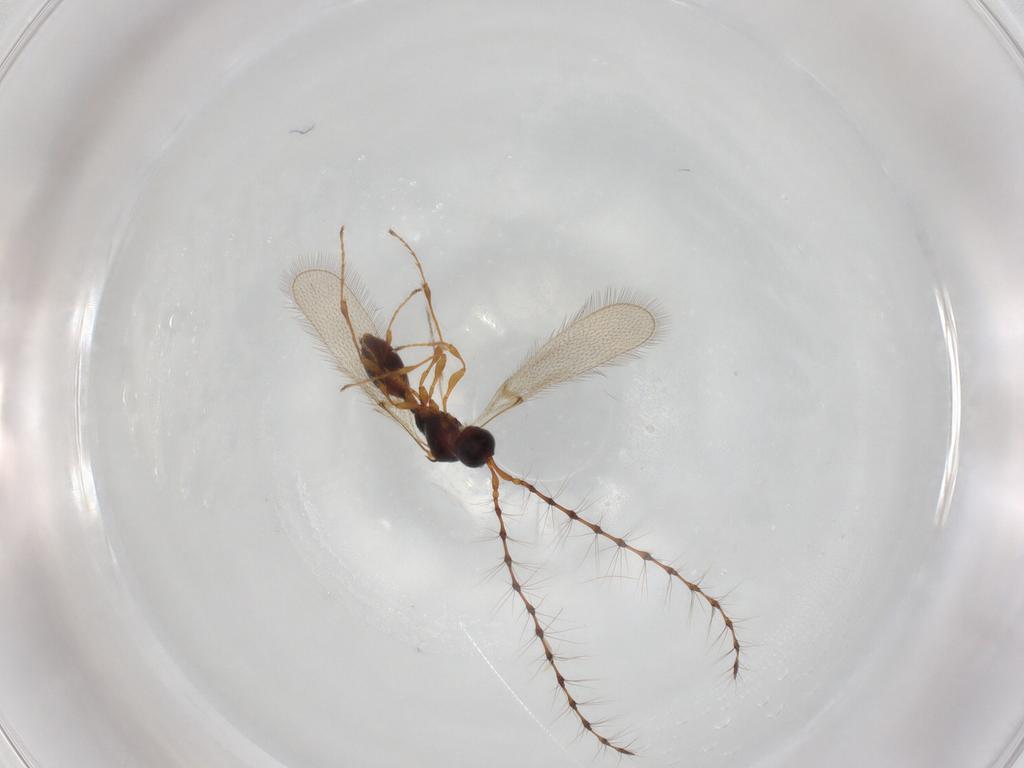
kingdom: Animalia
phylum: Arthropoda
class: Insecta
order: Hymenoptera
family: Diapriidae
